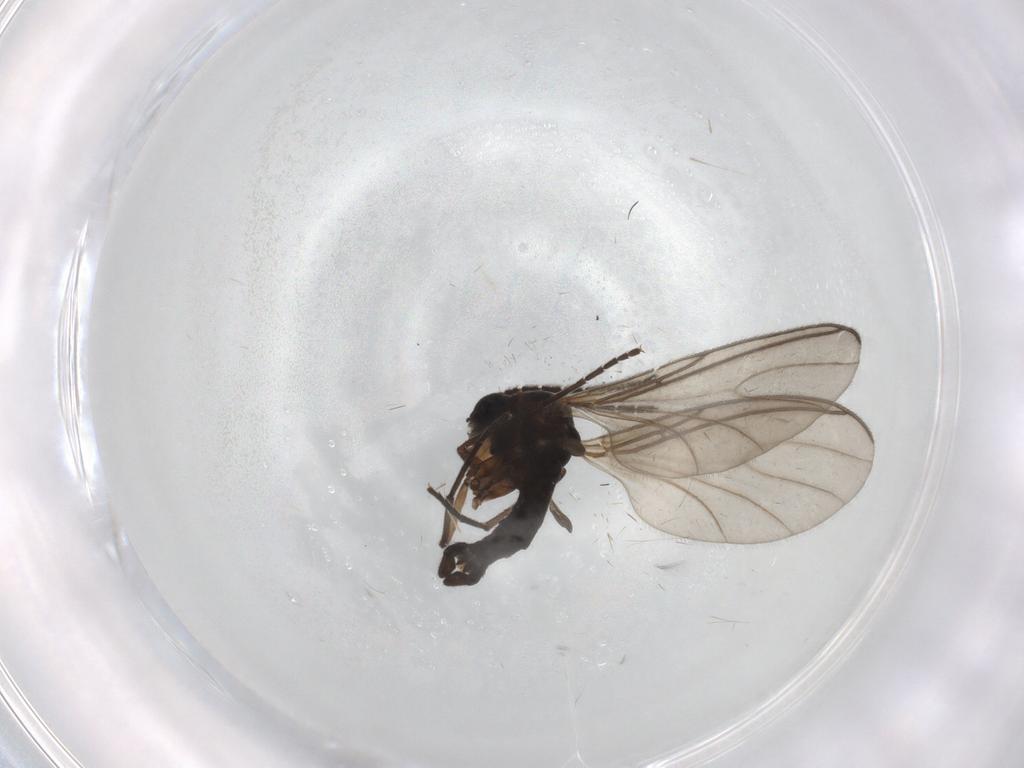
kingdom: Animalia
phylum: Arthropoda
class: Insecta
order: Diptera
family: Sciaridae
